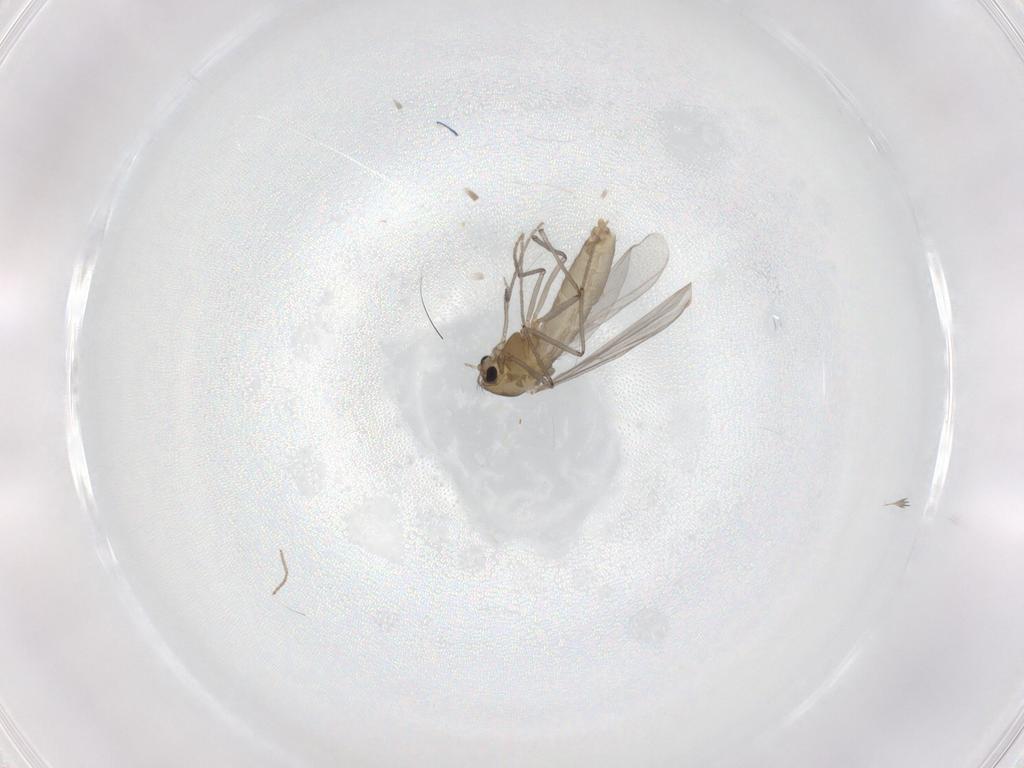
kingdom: Animalia
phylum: Arthropoda
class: Insecta
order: Diptera
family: Chironomidae
